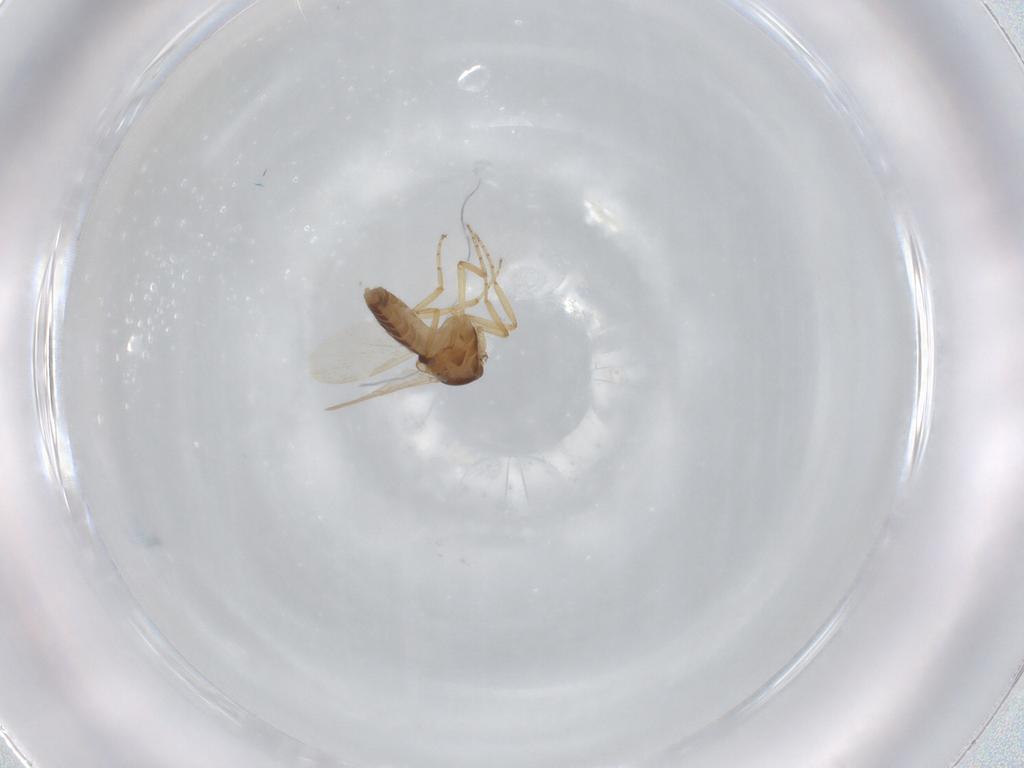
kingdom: Animalia
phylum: Arthropoda
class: Insecta
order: Diptera
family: Ceratopogonidae
